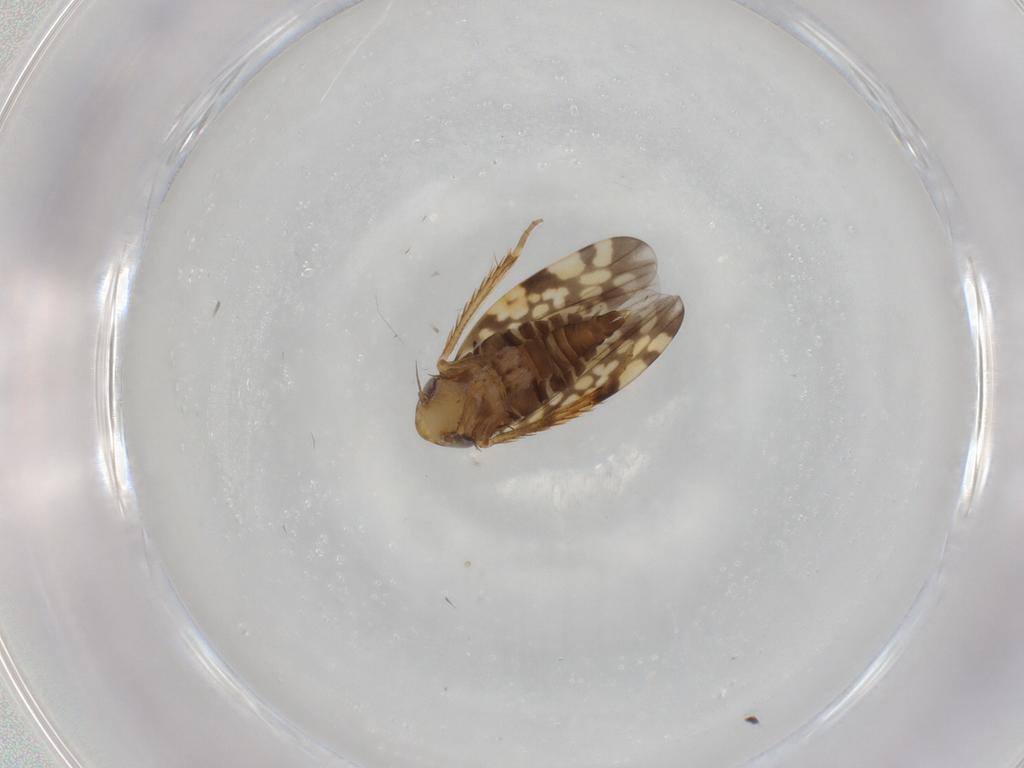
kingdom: Animalia
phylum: Arthropoda
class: Insecta
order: Hemiptera
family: Cicadellidae
